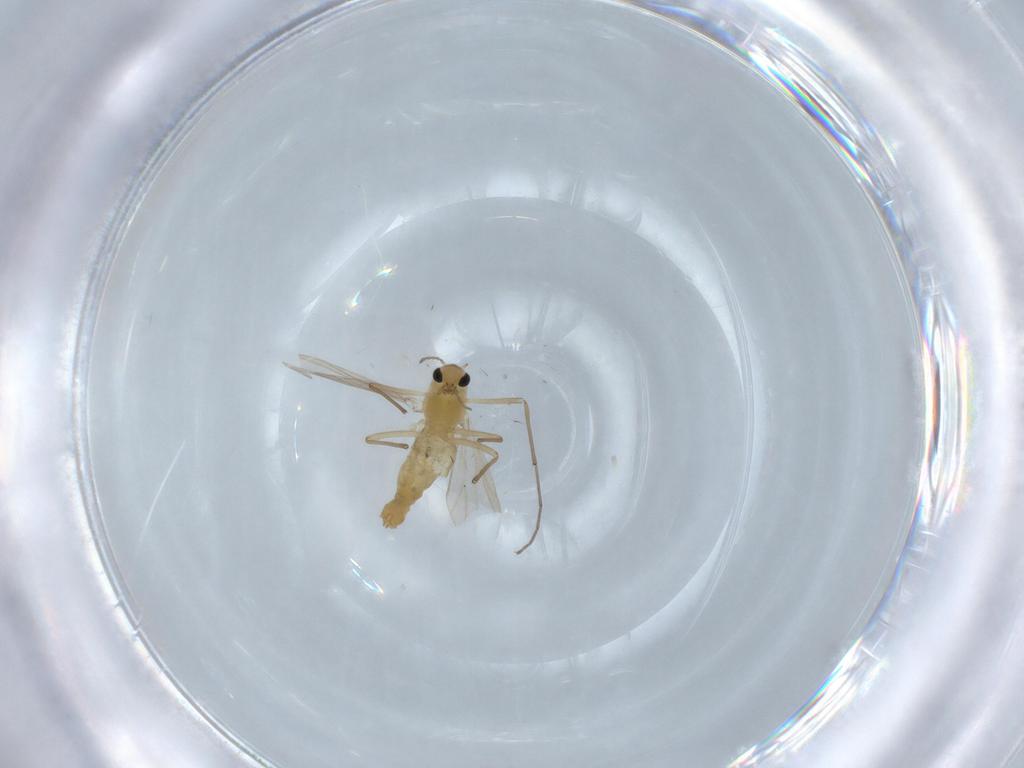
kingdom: Animalia
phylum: Arthropoda
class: Insecta
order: Diptera
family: Chironomidae
